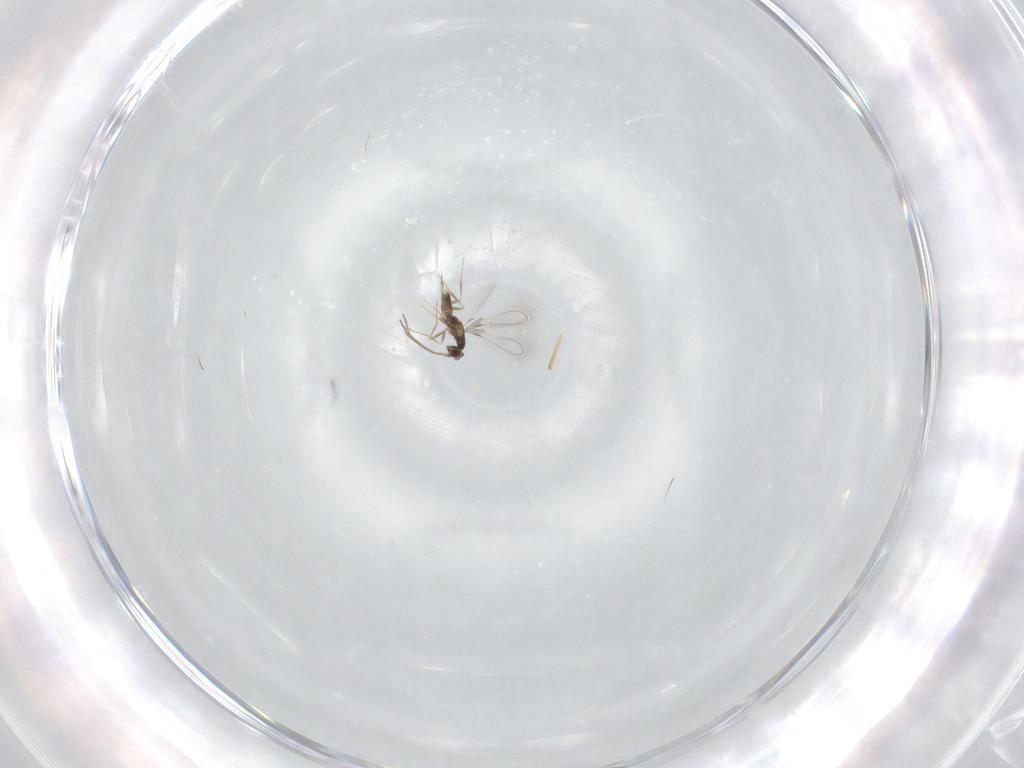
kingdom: Animalia
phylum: Arthropoda
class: Insecta
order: Hymenoptera
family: Mymaridae
